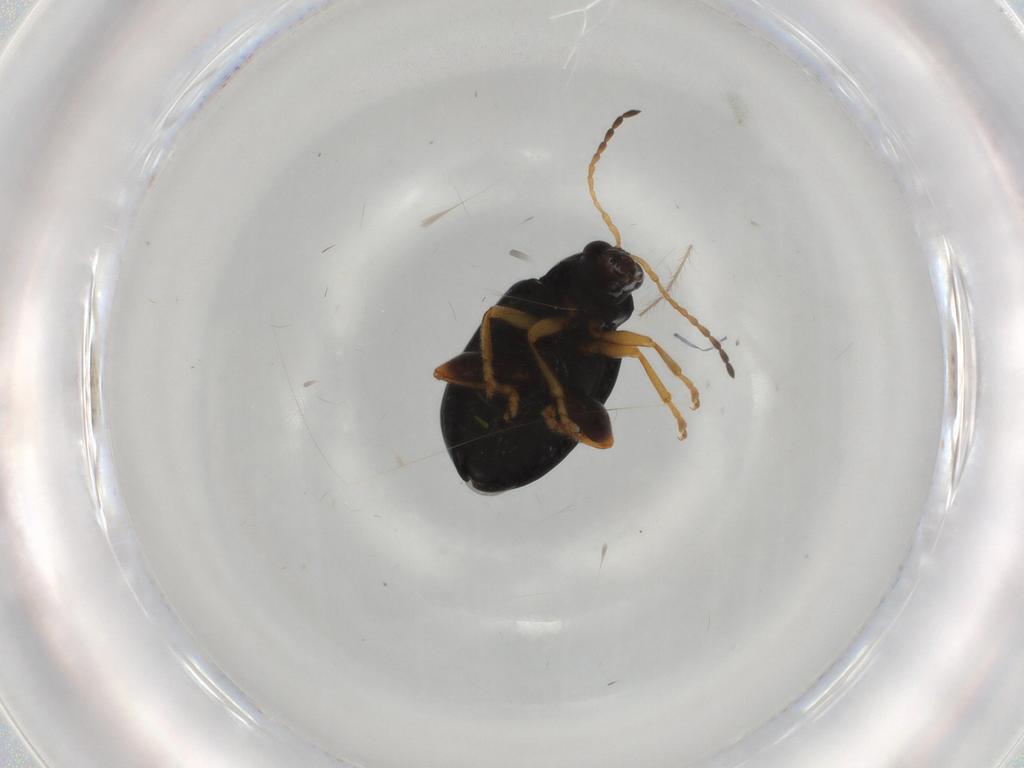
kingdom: Animalia
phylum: Arthropoda
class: Insecta
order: Coleoptera
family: Chrysomelidae
